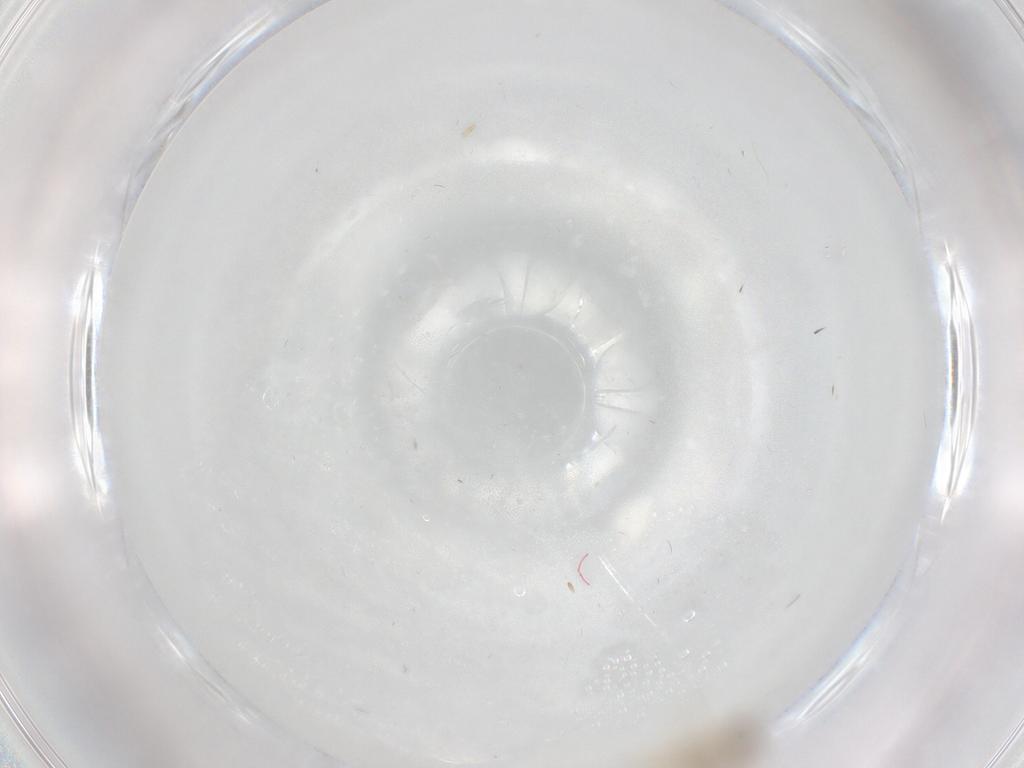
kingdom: Animalia
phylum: Arthropoda
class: Insecta
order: Diptera
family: Limoniidae
